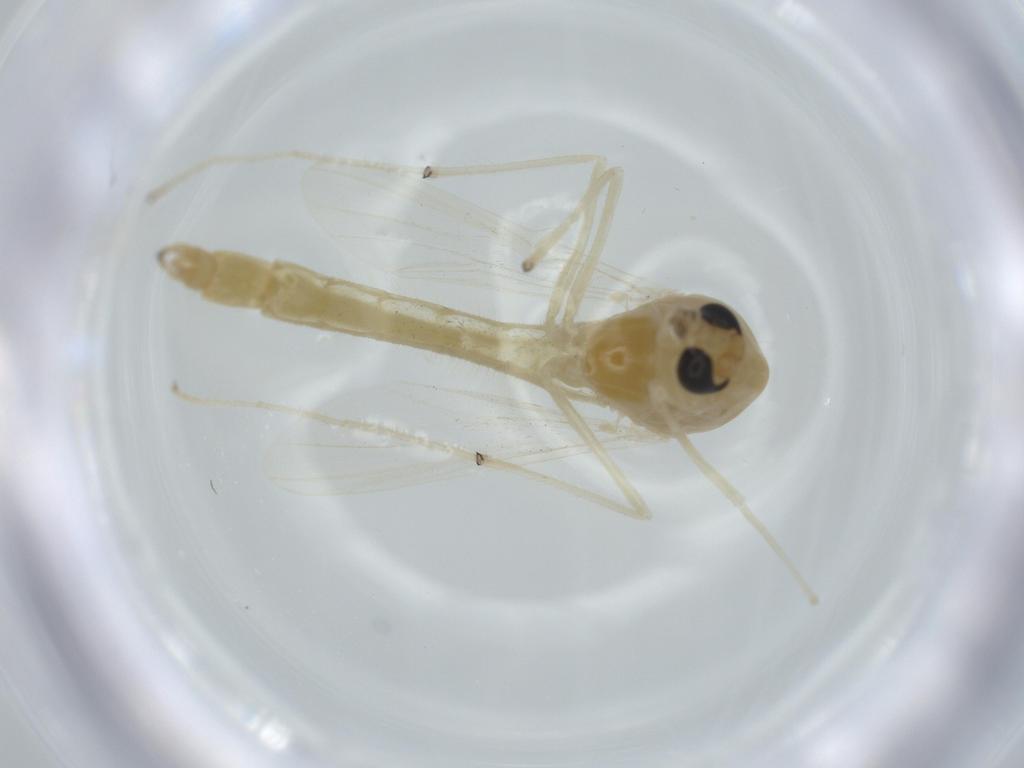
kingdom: Animalia
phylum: Arthropoda
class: Insecta
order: Diptera
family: Chironomidae
